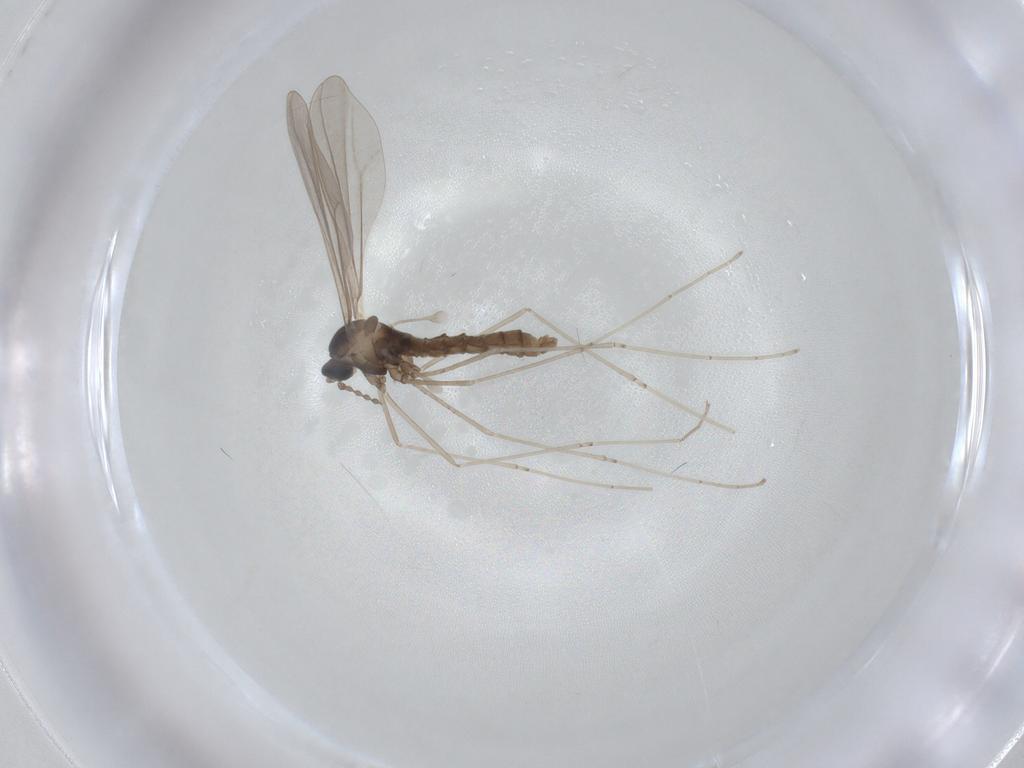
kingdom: Animalia
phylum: Arthropoda
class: Insecta
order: Diptera
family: Cecidomyiidae
